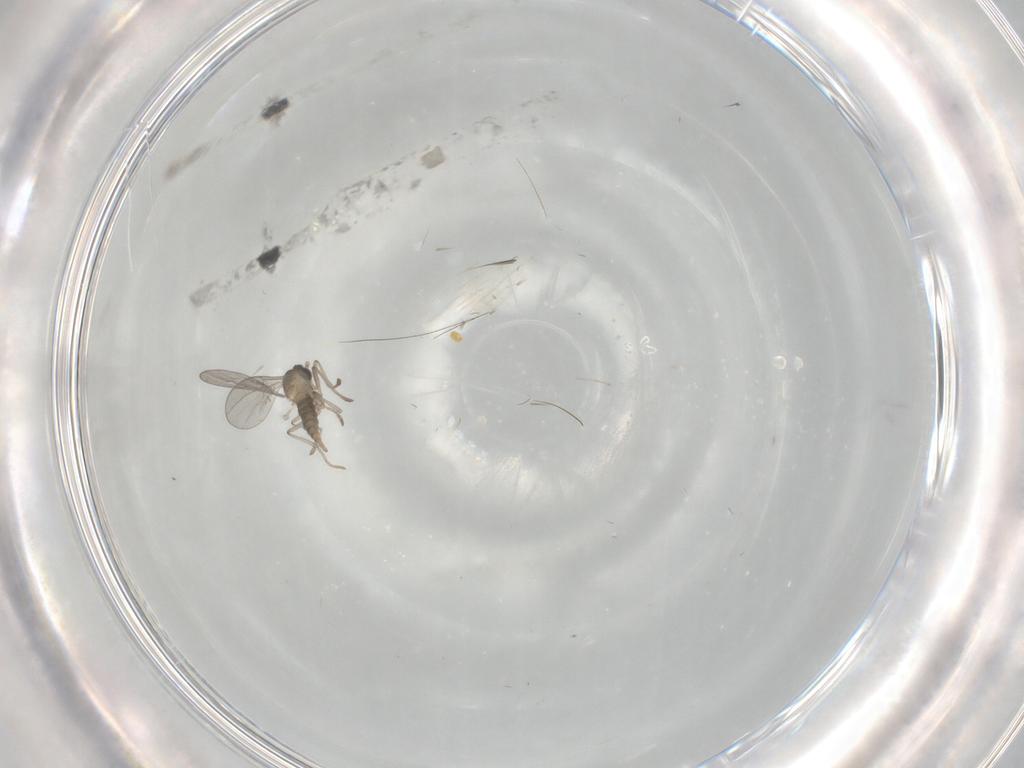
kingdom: Animalia
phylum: Arthropoda
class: Insecta
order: Diptera
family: Cecidomyiidae
